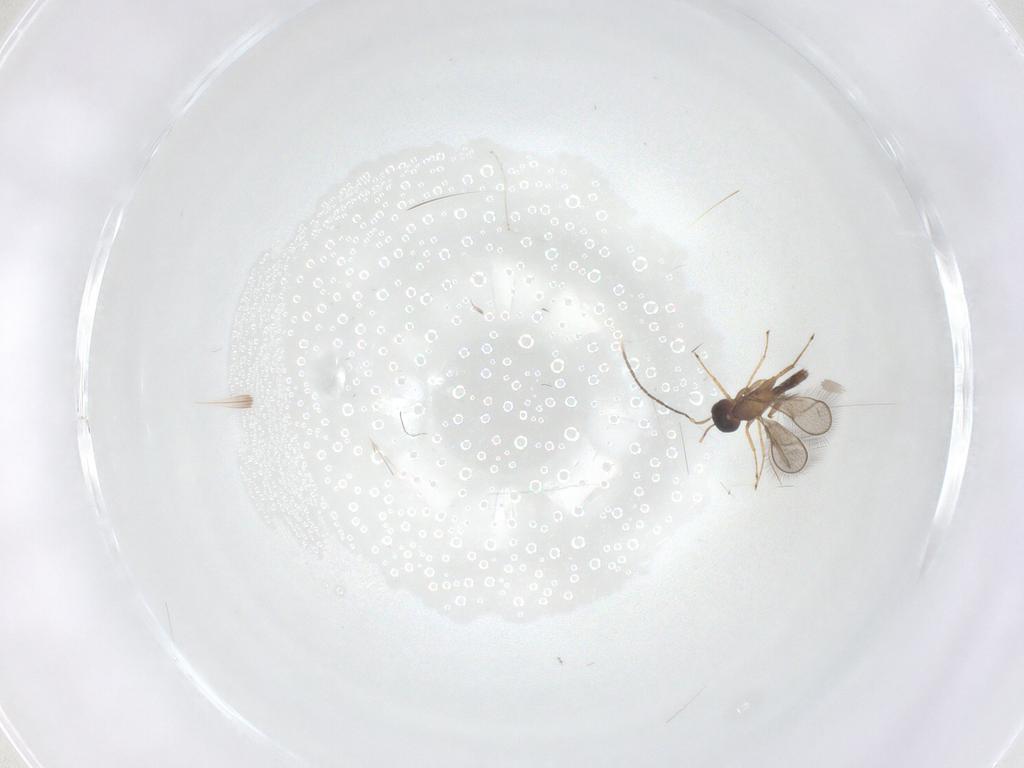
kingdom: Animalia
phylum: Arthropoda
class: Insecta
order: Hymenoptera
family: Mymaridae
